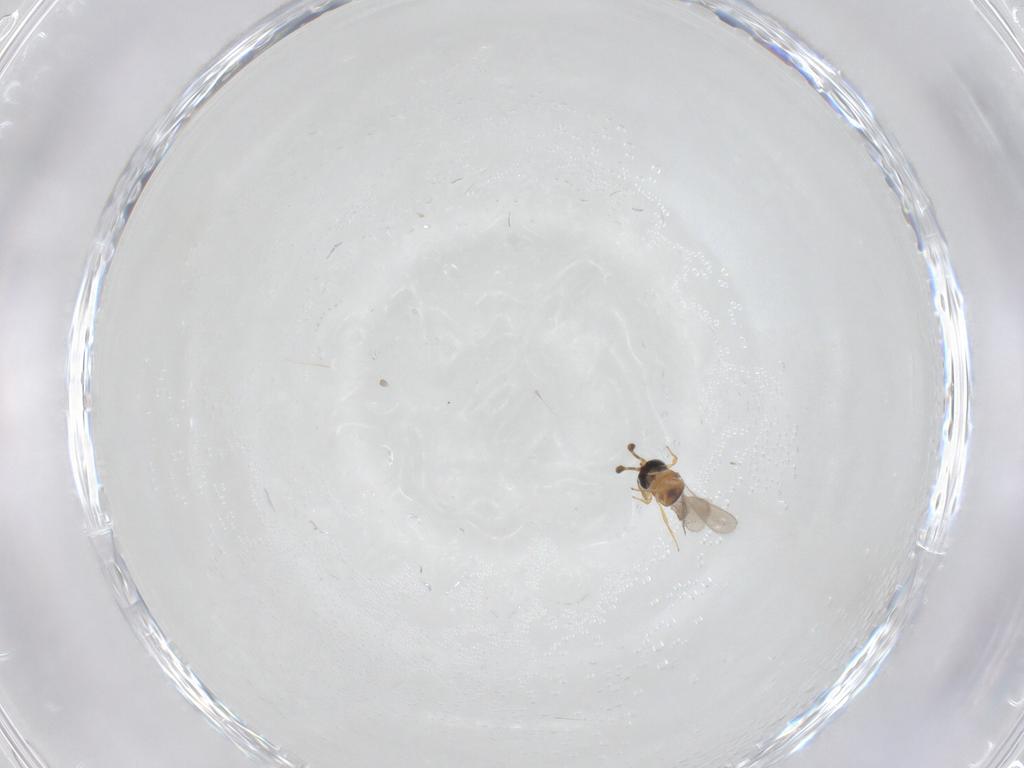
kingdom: Animalia
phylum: Arthropoda
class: Insecta
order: Hymenoptera
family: Scelionidae
